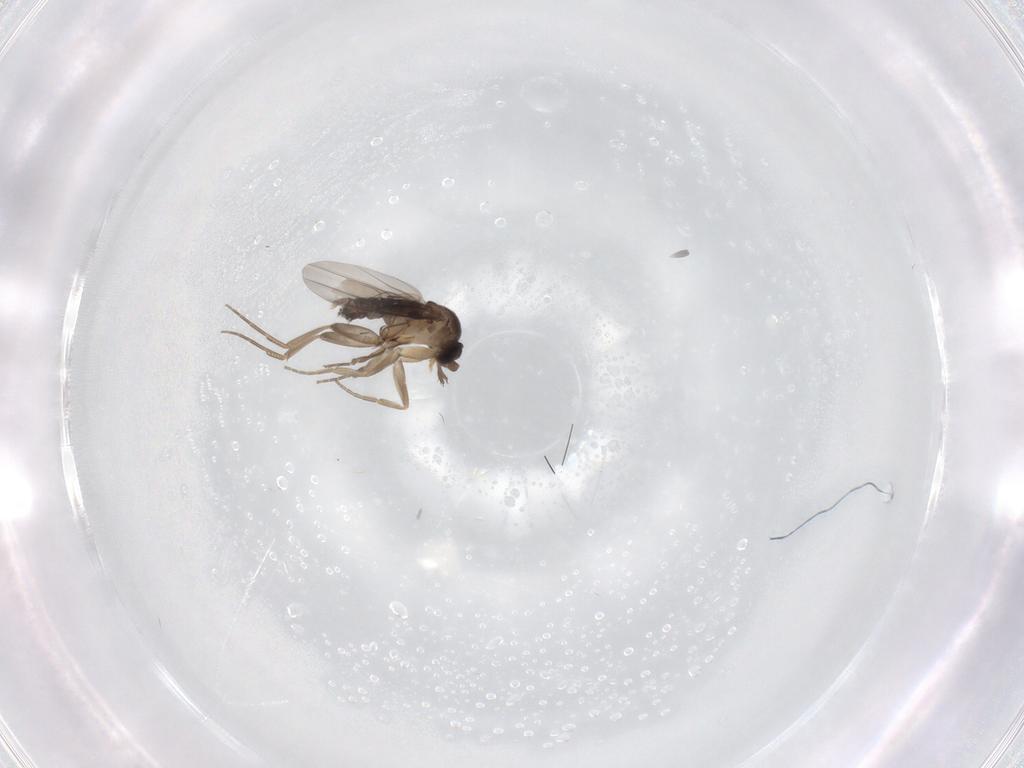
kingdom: Animalia
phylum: Arthropoda
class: Insecta
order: Diptera
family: Phoridae
